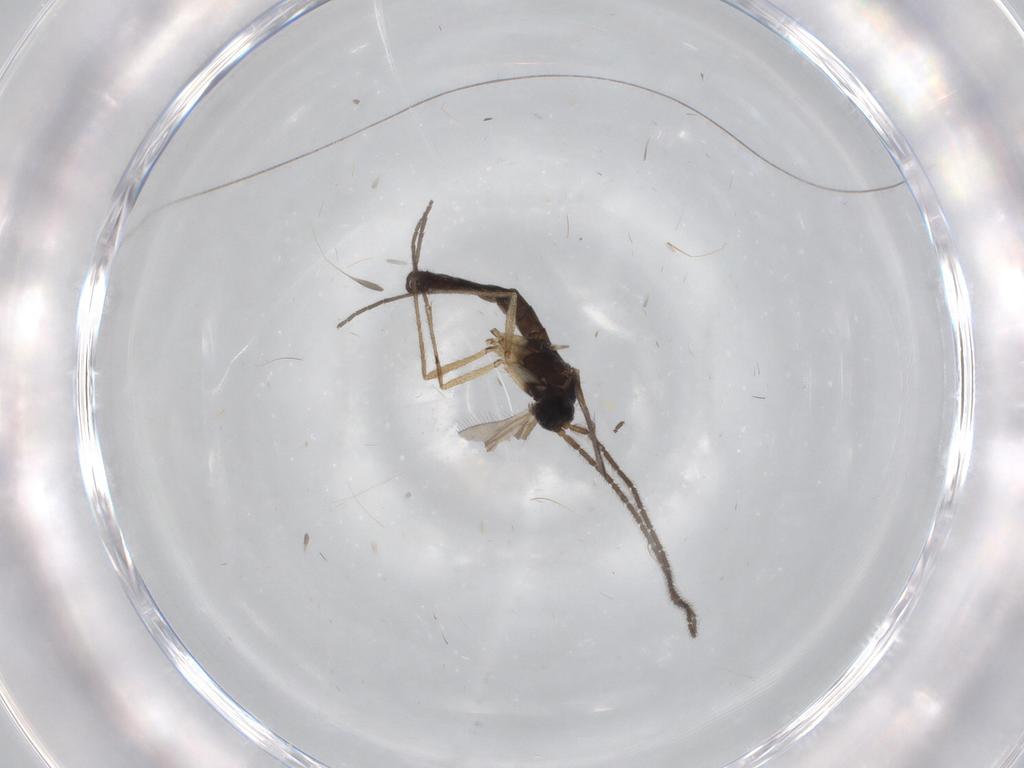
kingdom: Animalia
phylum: Arthropoda
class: Insecta
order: Diptera
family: Sciaridae
